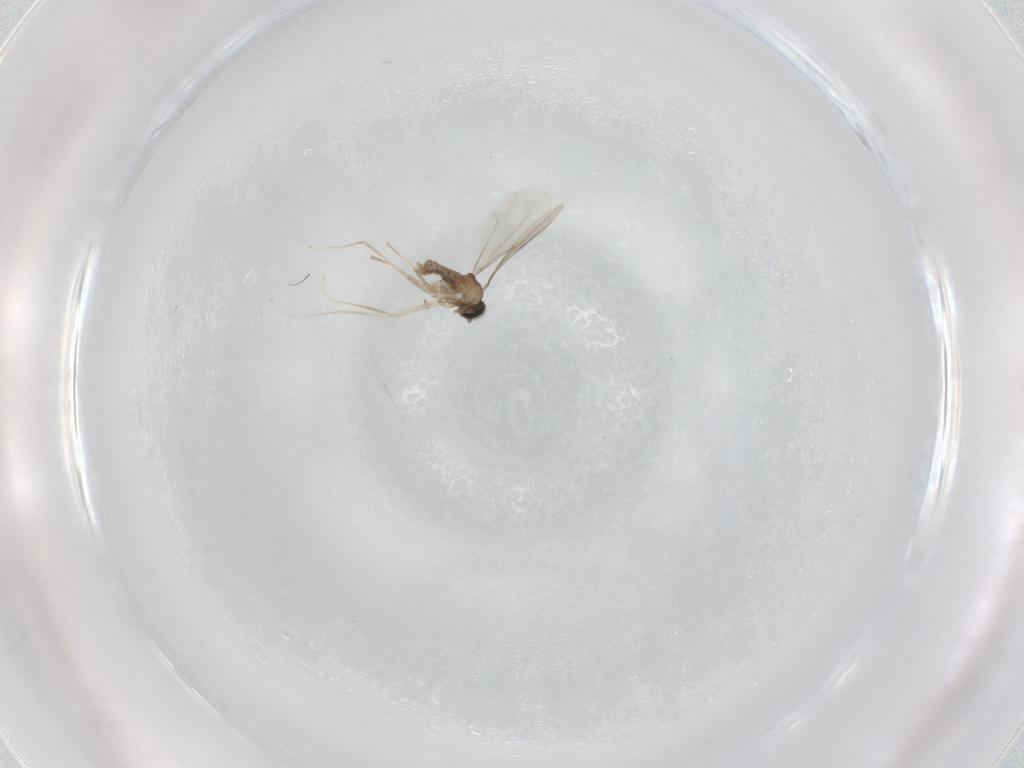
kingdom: Animalia
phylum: Arthropoda
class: Insecta
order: Diptera
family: Cecidomyiidae
